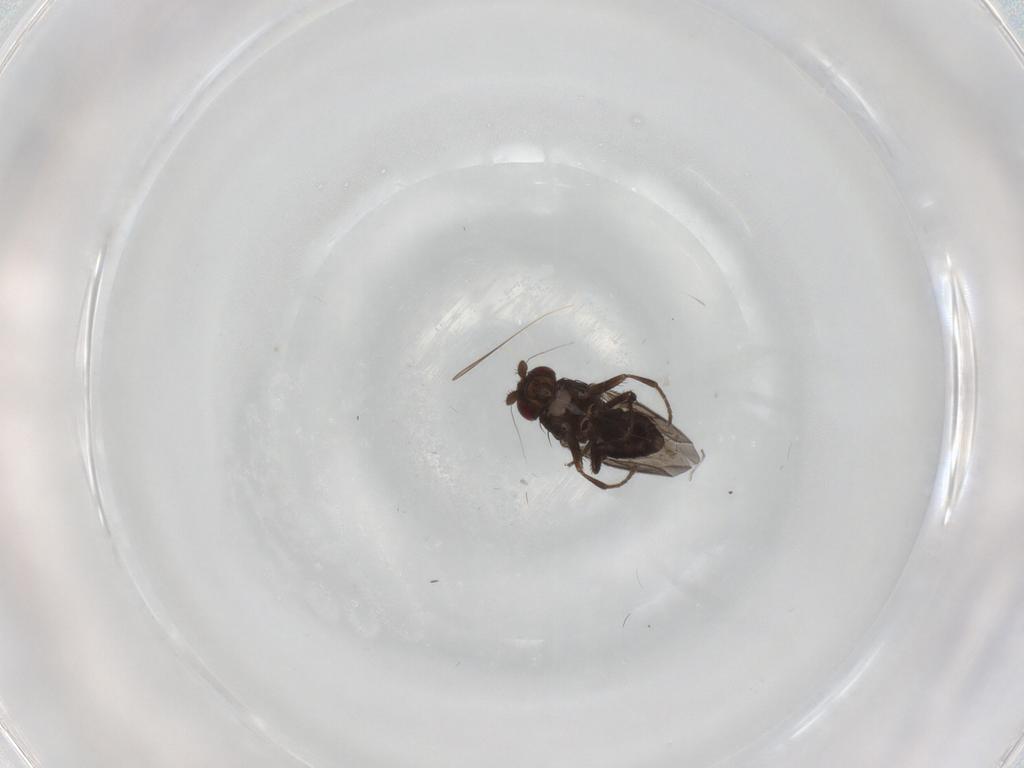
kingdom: Animalia
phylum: Arthropoda
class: Insecta
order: Diptera
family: Sphaeroceridae
